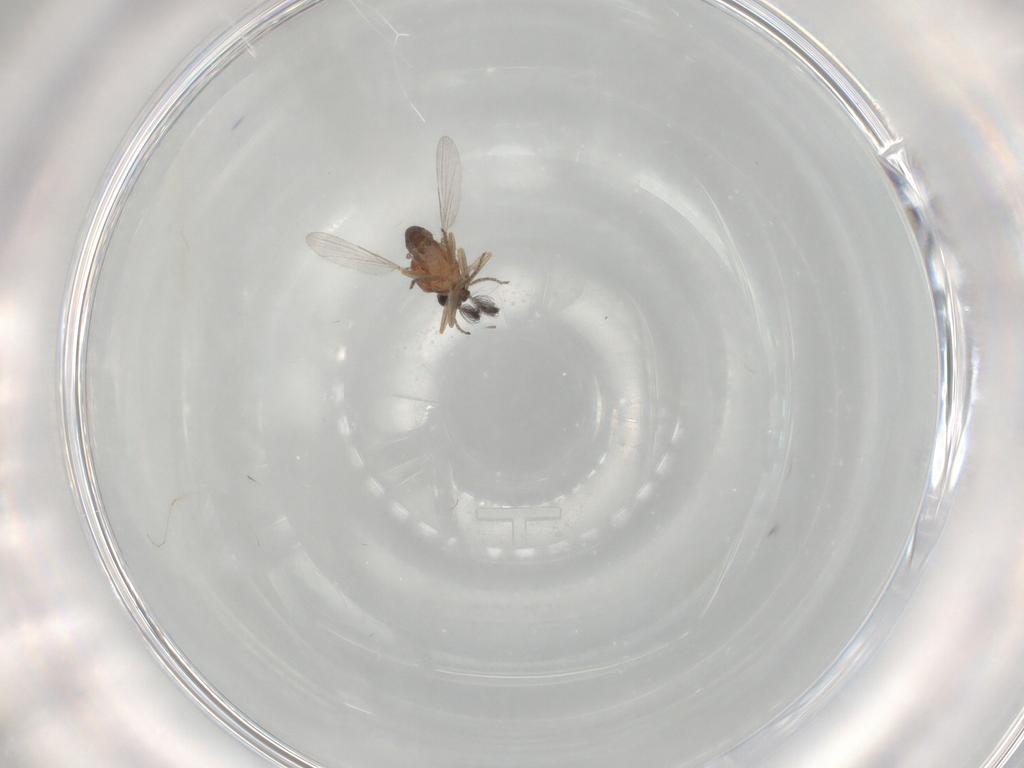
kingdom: Animalia
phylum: Arthropoda
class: Insecta
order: Diptera
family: Ceratopogonidae
